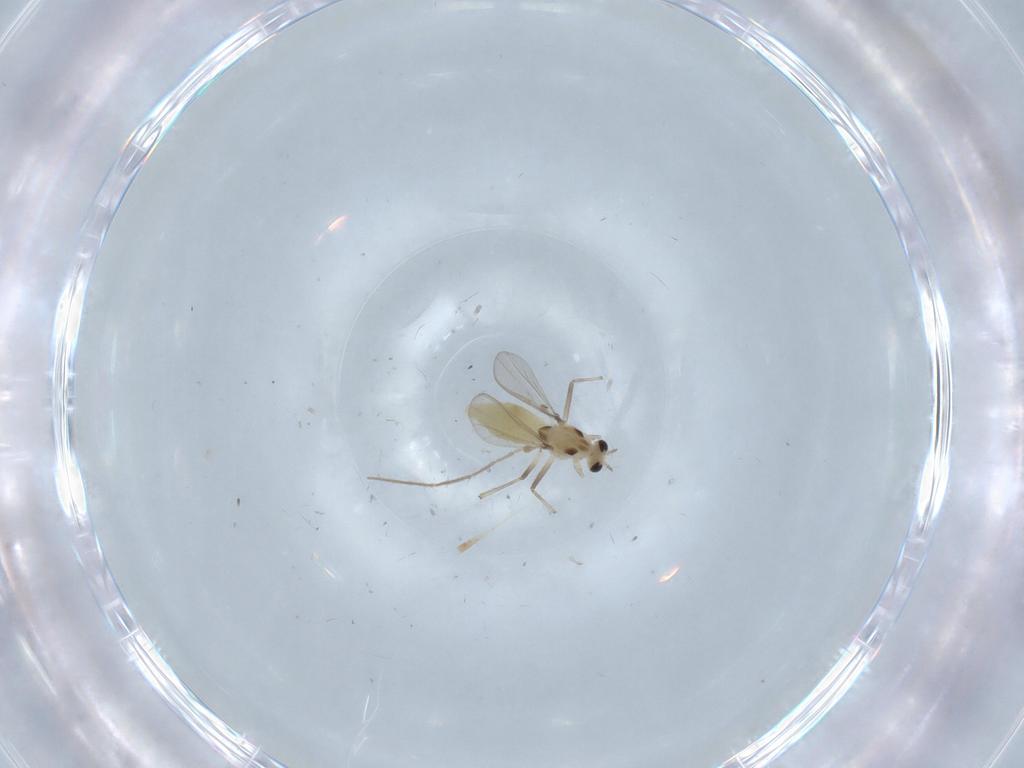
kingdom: Animalia
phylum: Arthropoda
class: Insecta
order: Diptera
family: Chironomidae
